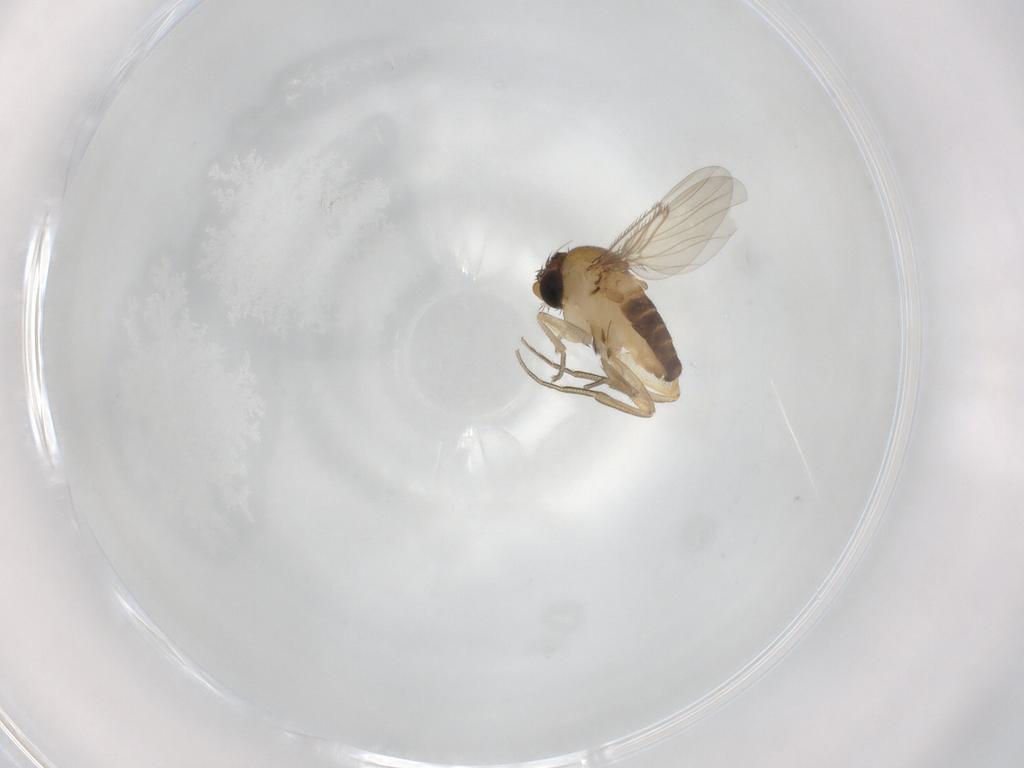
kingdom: Animalia
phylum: Arthropoda
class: Insecta
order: Diptera
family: Phoridae
